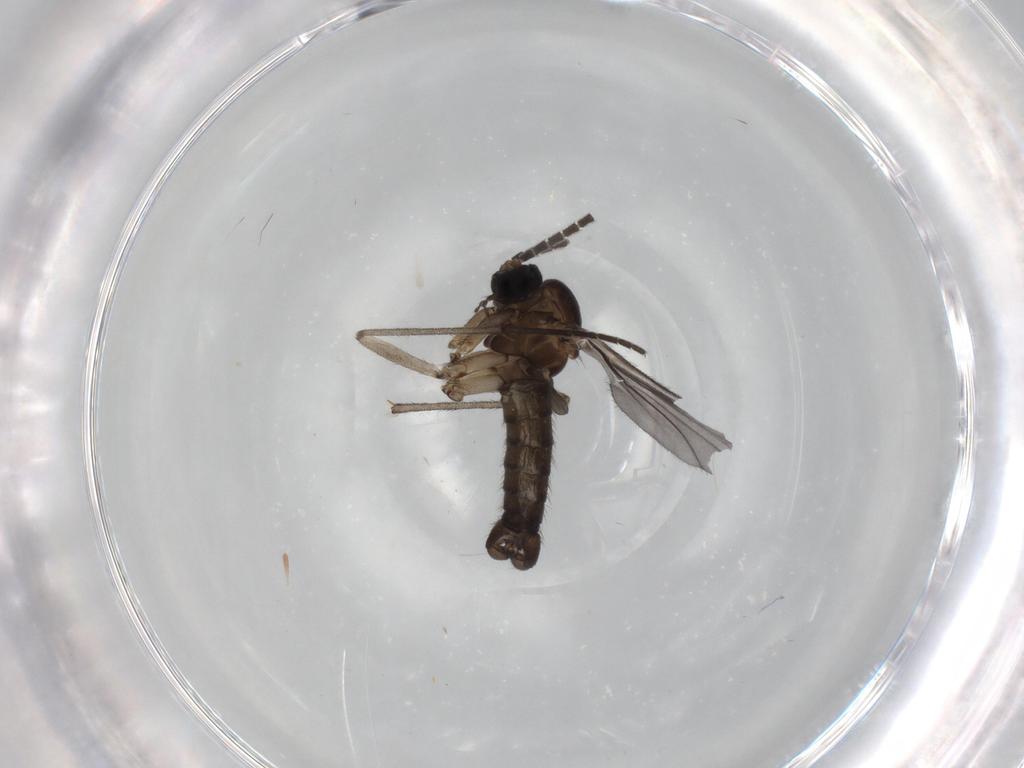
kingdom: Animalia
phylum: Arthropoda
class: Insecta
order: Diptera
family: Sciaridae
